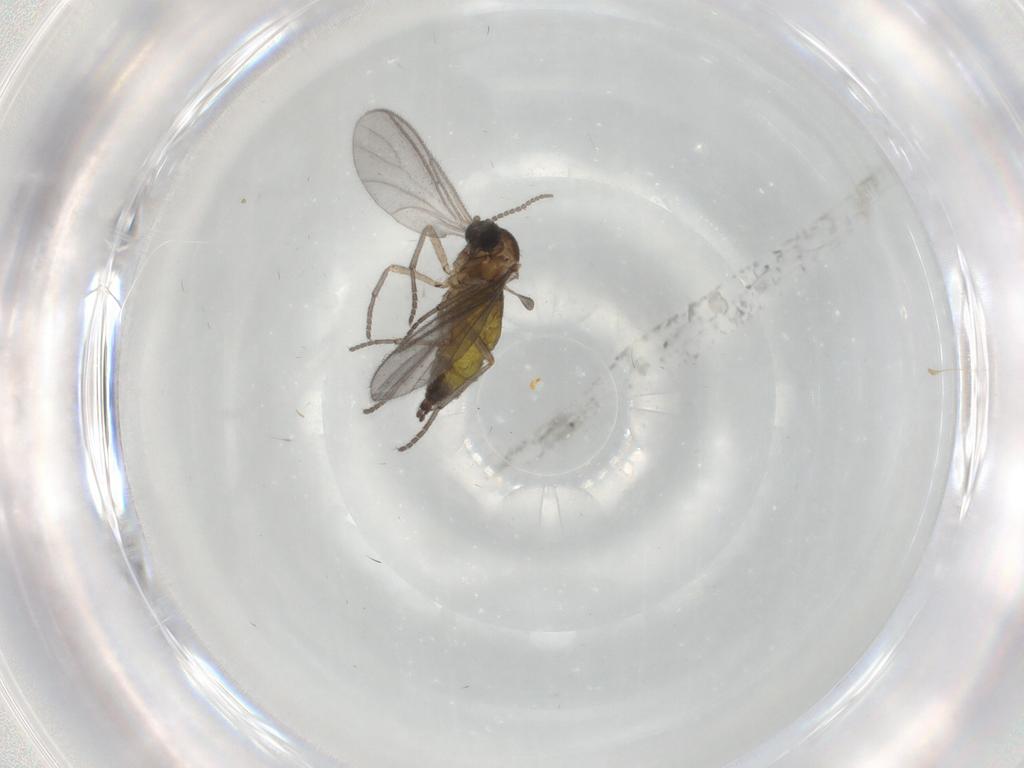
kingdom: Animalia
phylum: Arthropoda
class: Insecta
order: Diptera
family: Sciaridae
